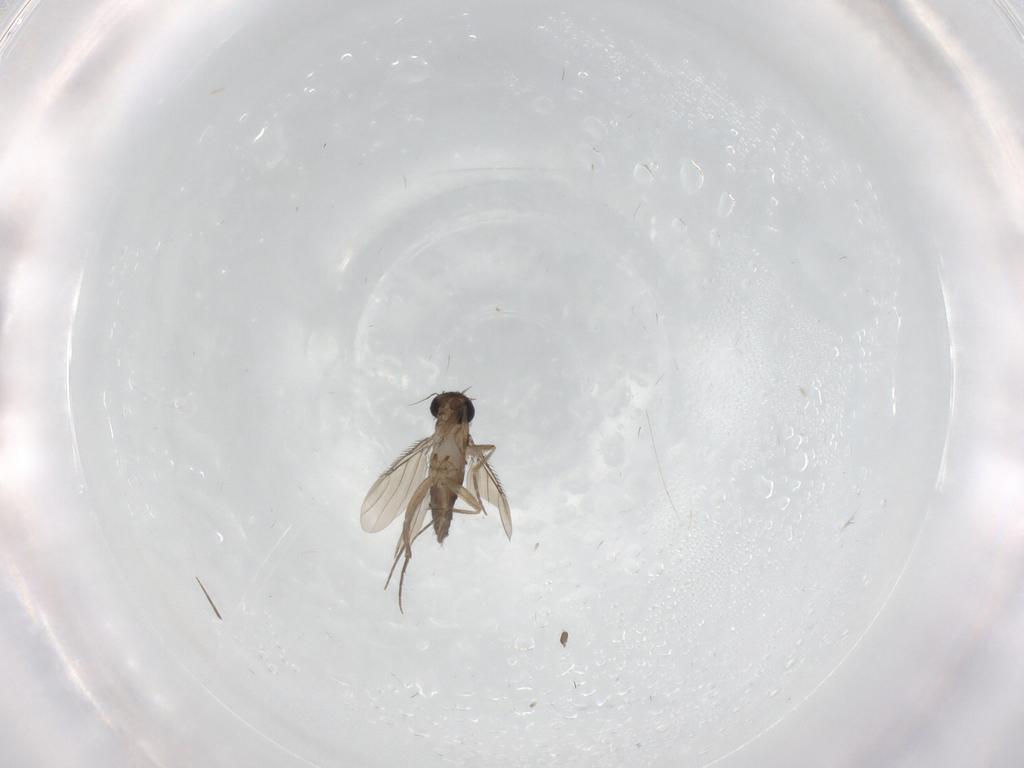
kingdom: Animalia
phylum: Arthropoda
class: Insecta
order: Diptera
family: Phoridae
